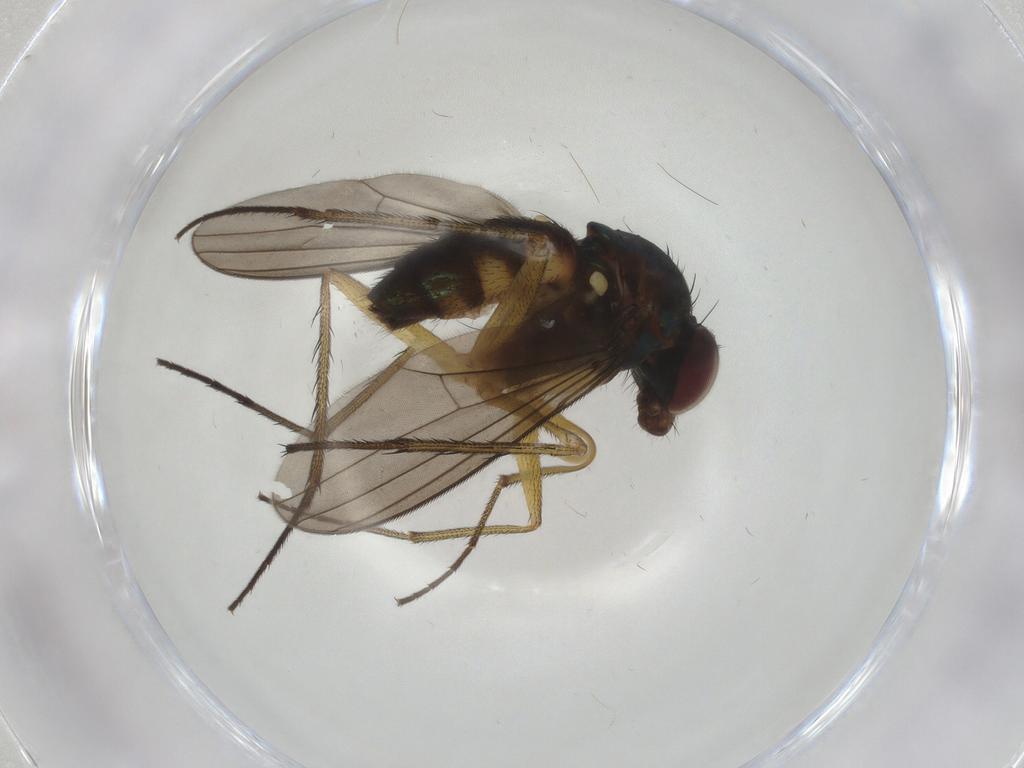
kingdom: Animalia
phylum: Arthropoda
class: Insecta
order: Diptera
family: Dolichopodidae
